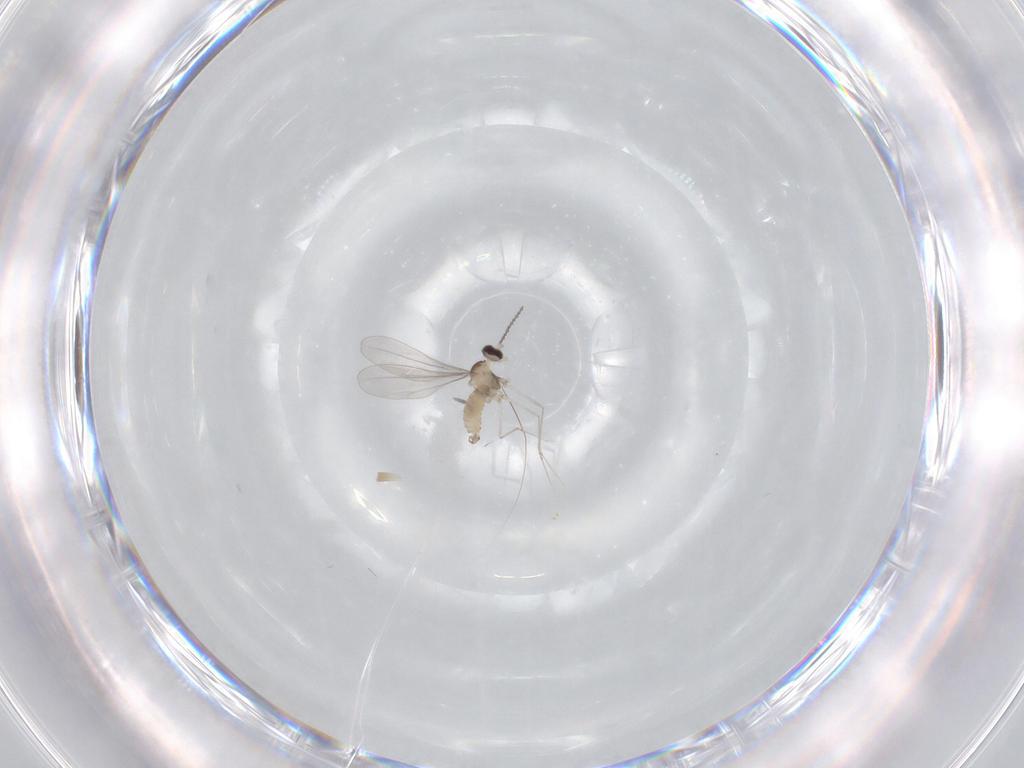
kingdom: Animalia
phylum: Arthropoda
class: Insecta
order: Diptera
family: Cecidomyiidae
